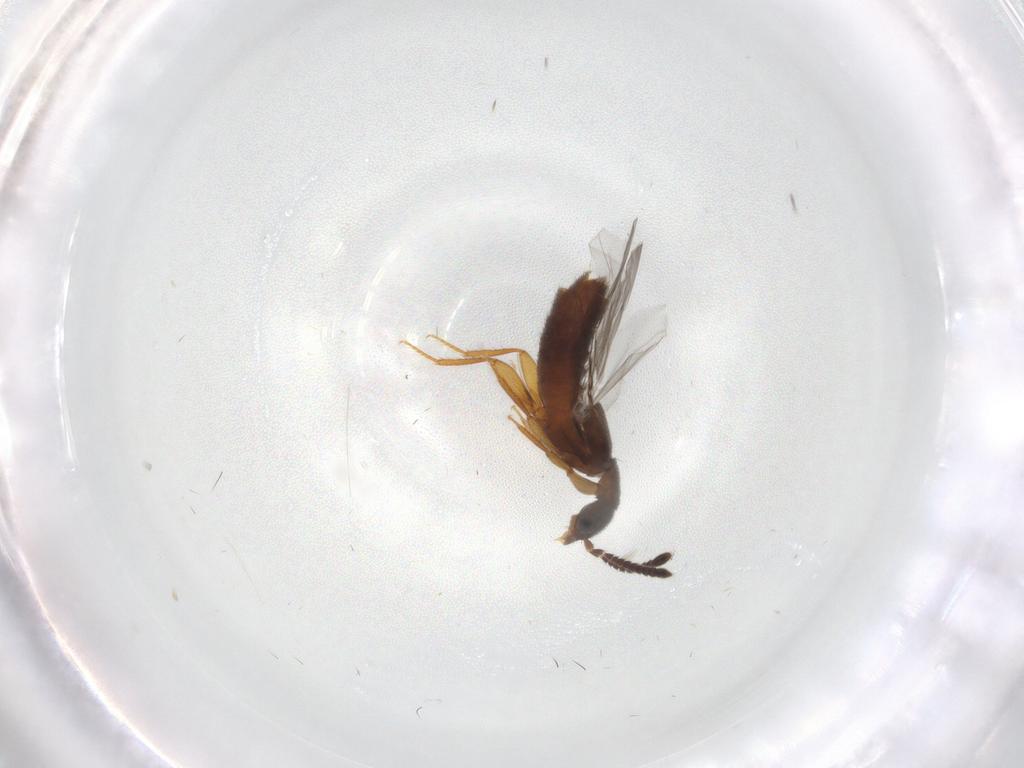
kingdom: Animalia
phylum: Arthropoda
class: Insecta
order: Coleoptera
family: Staphylinidae
